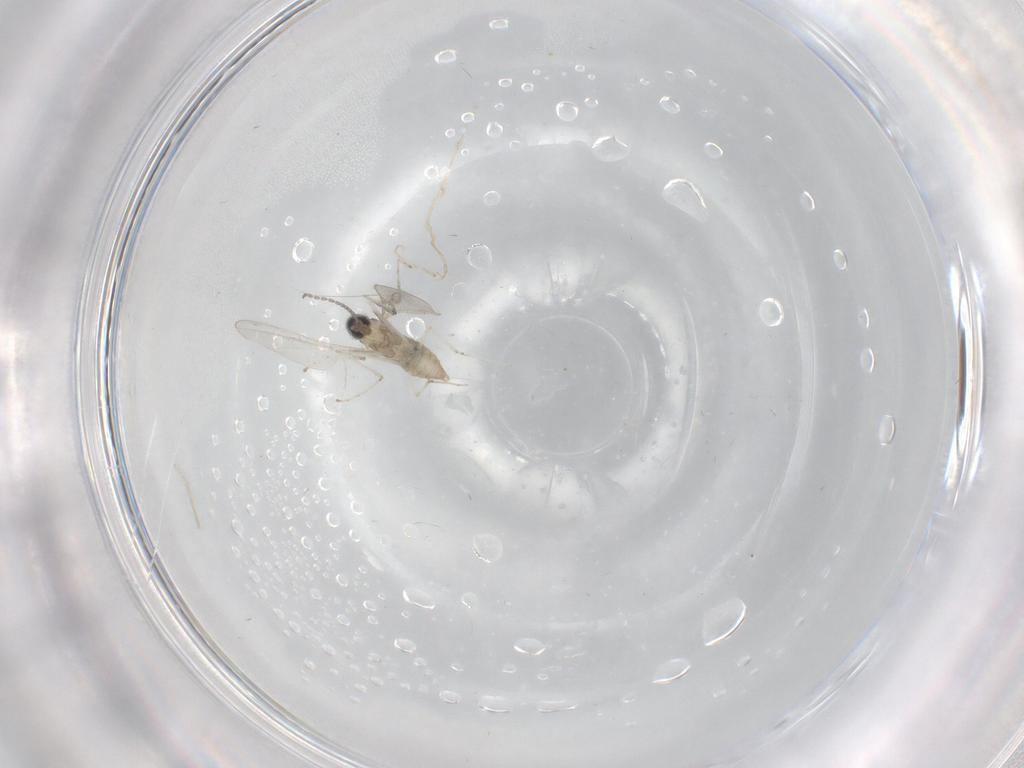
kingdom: Animalia
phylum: Arthropoda
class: Insecta
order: Diptera
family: Cecidomyiidae
